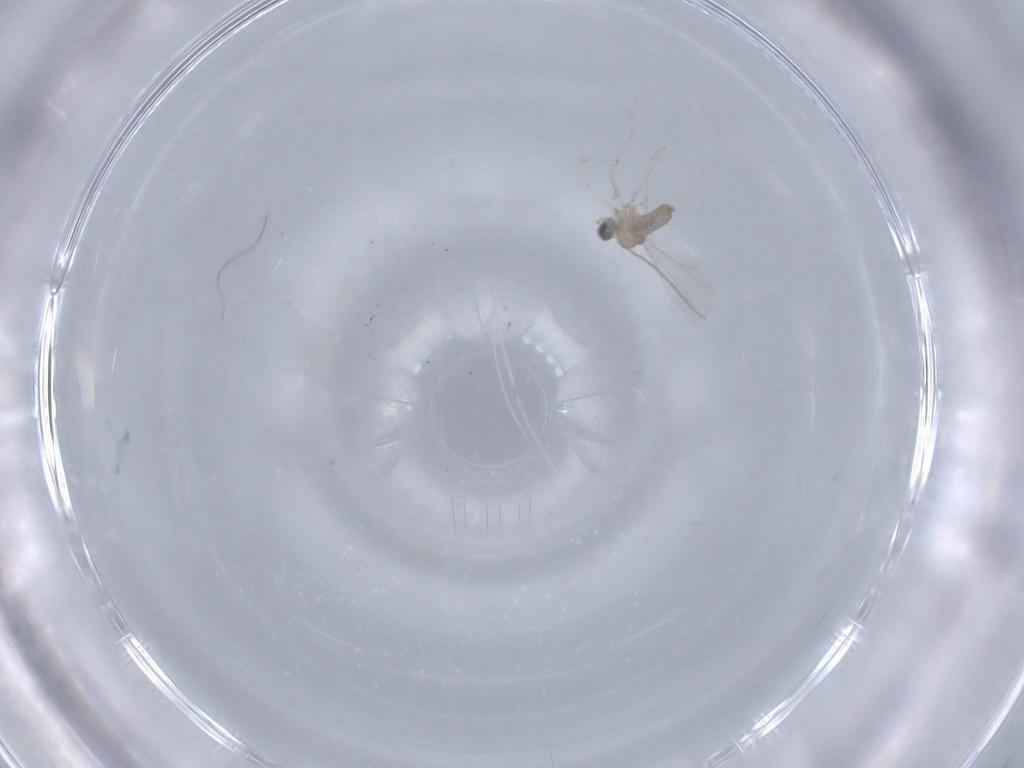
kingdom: Animalia
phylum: Arthropoda
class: Insecta
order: Diptera
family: Cecidomyiidae
